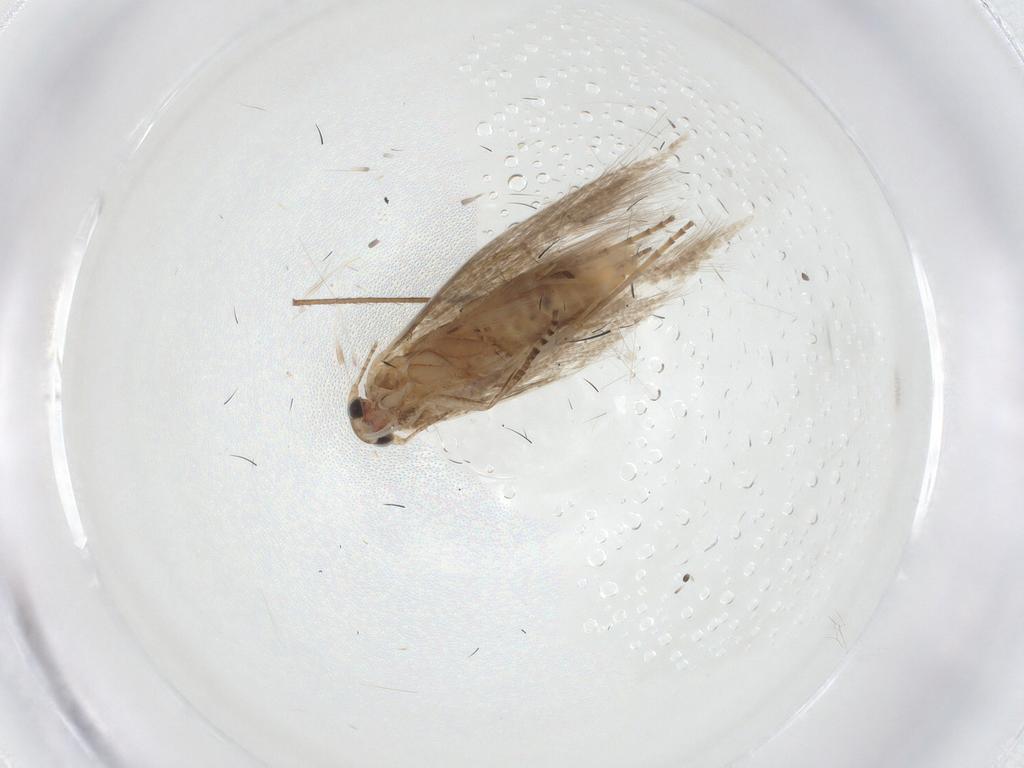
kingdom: Animalia
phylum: Arthropoda
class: Insecta
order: Lepidoptera
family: Bucculatricidae
